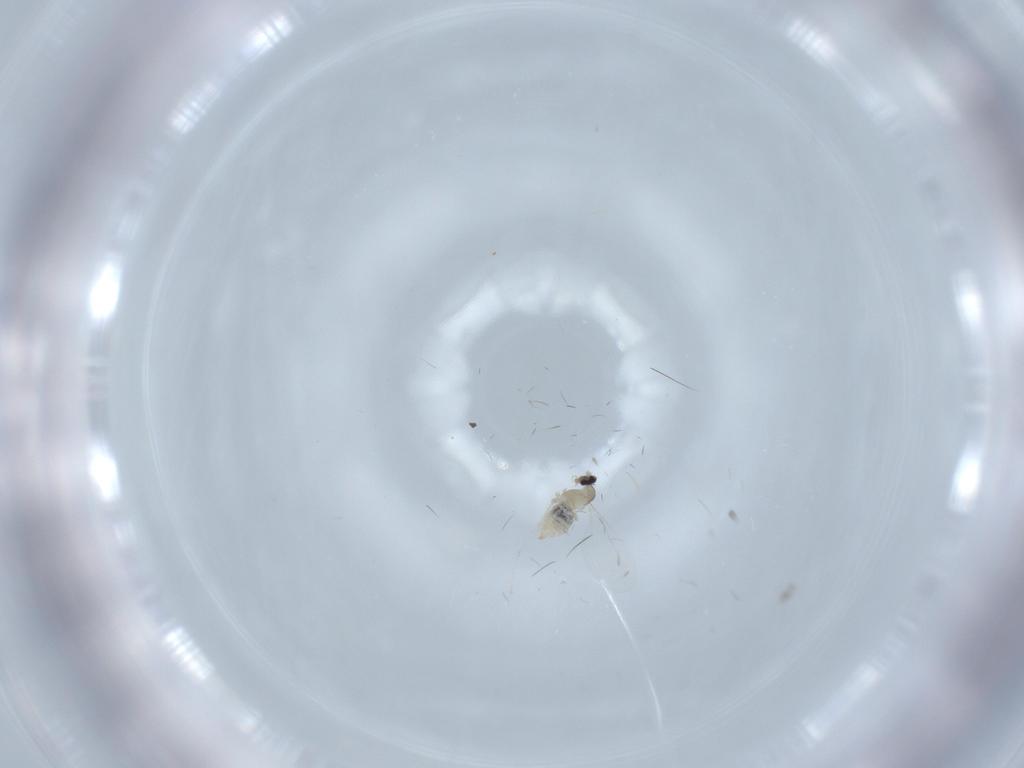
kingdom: Animalia
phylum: Arthropoda
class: Insecta
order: Diptera
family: Cecidomyiidae
